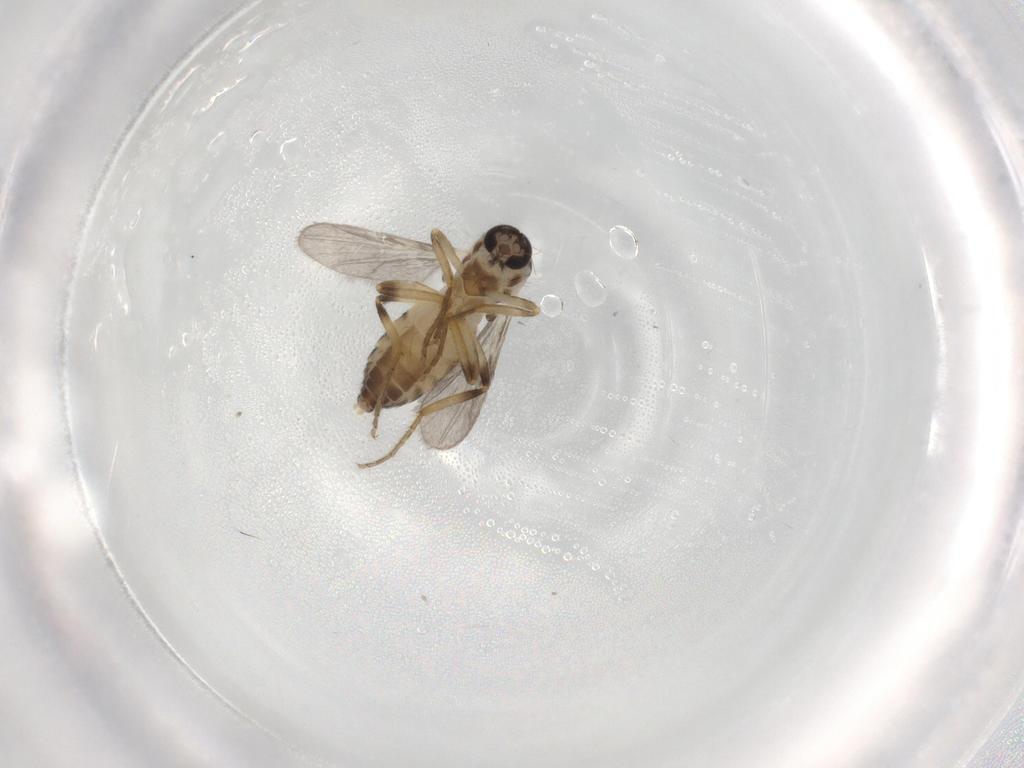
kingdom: Animalia
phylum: Arthropoda
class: Insecta
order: Diptera
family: Ceratopogonidae
